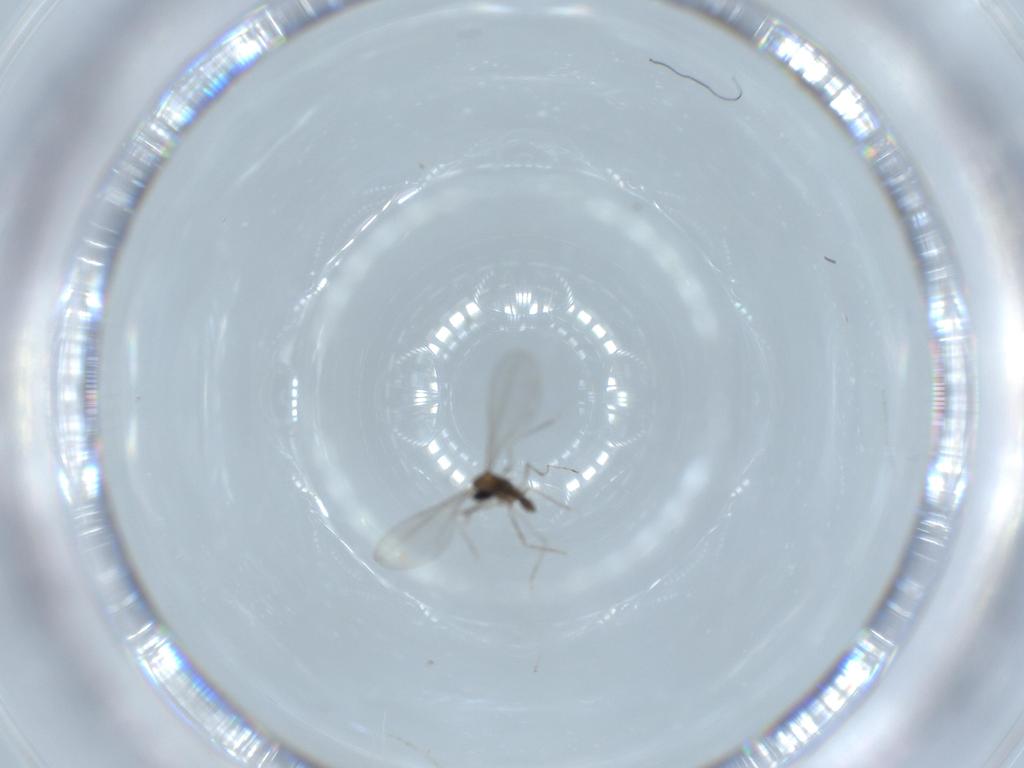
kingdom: Animalia
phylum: Arthropoda
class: Insecta
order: Diptera
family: Cecidomyiidae
